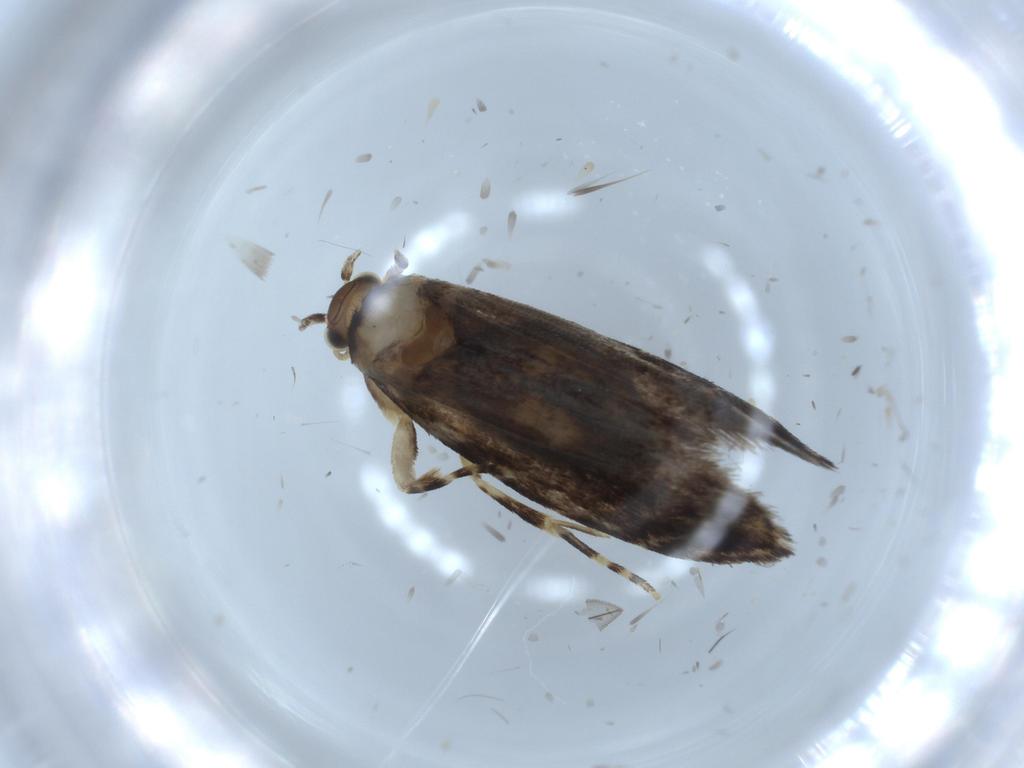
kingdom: Animalia
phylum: Arthropoda
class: Insecta
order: Lepidoptera
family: Tineidae
